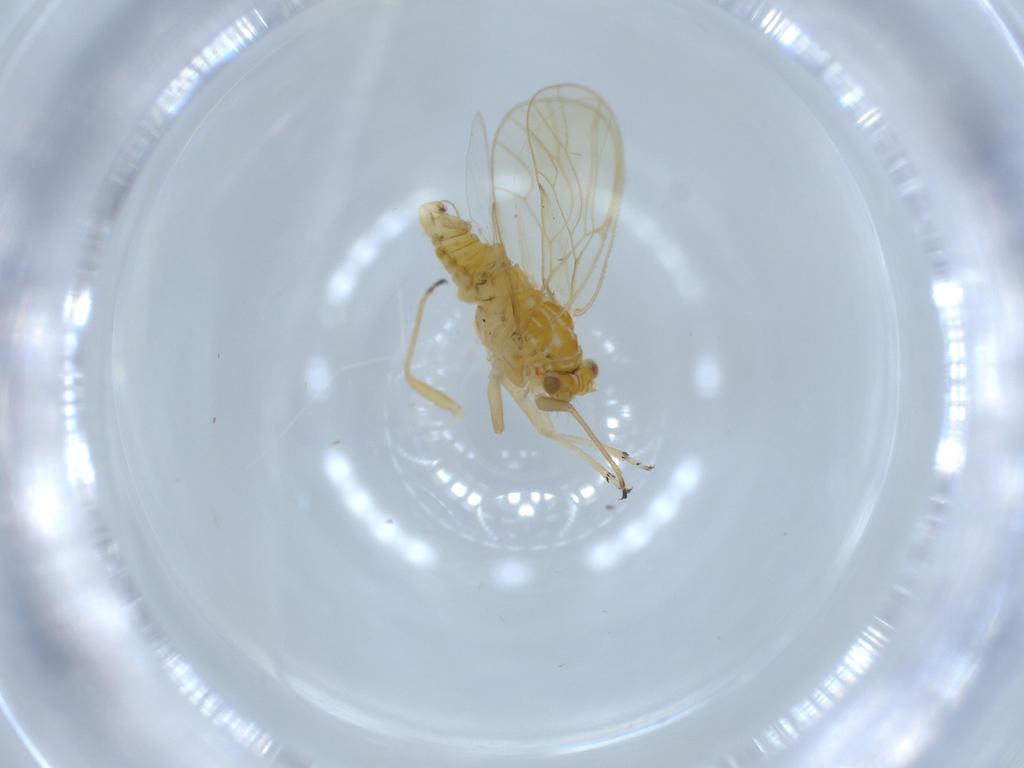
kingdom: Animalia
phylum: Arthropoda
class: Insecta
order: Hemiptera
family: Psyllidae
